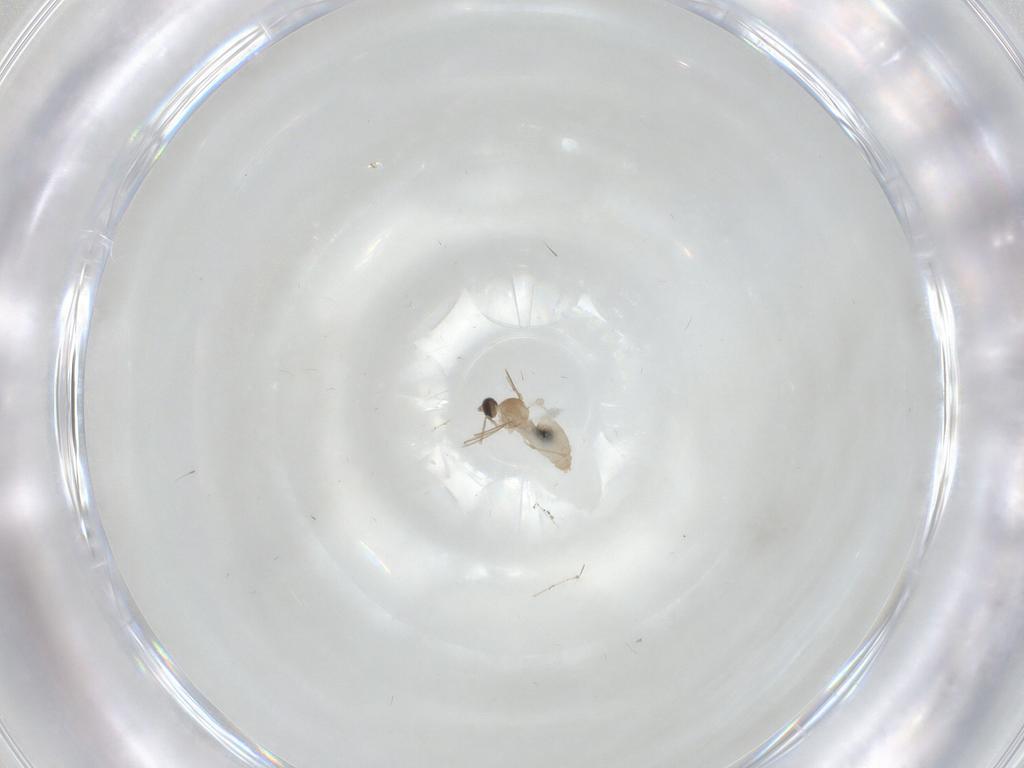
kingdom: Animalia
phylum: Arthropoda
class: Insecta
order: Diptera
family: Cecidomyiidae
